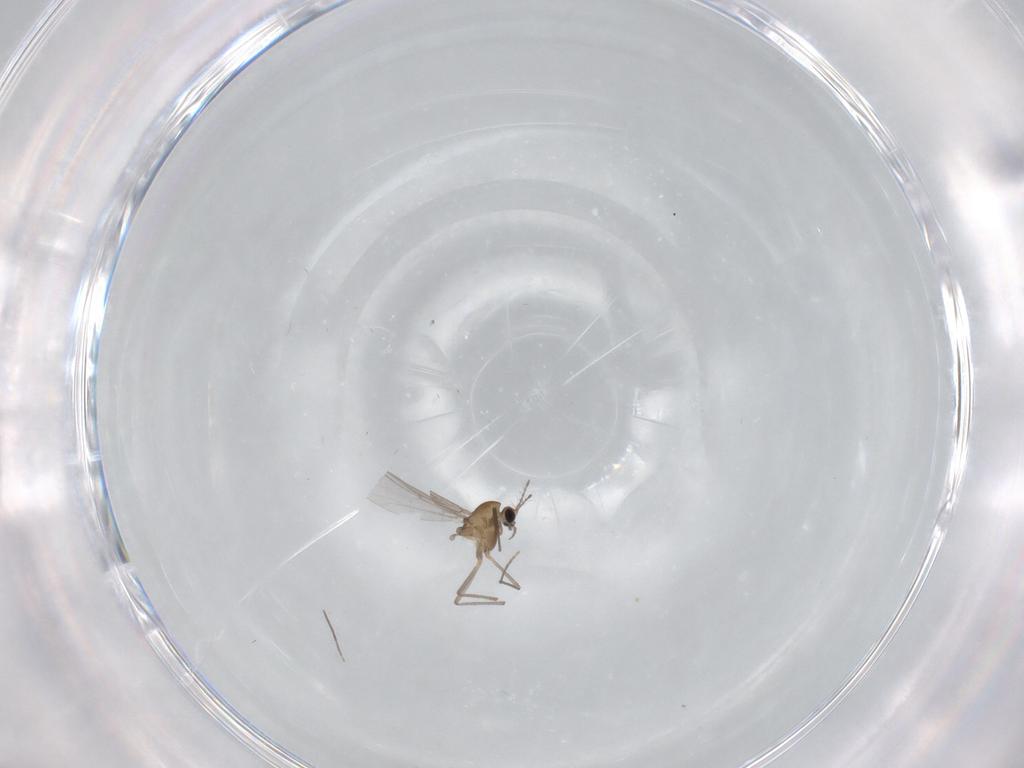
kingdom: Animalia
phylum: Arthropoda
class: Insecta
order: Diptera
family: Chironomidae
